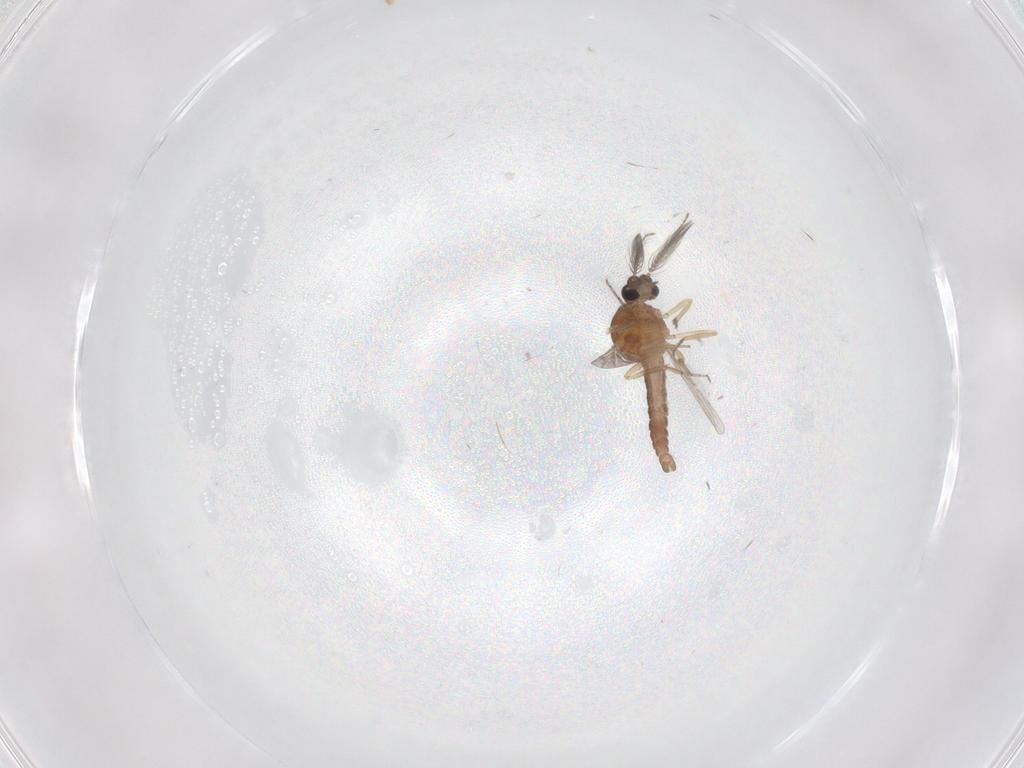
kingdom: Animalia
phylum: Arthropoda
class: Insecta
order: Diptera
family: Ceratopogonidae
